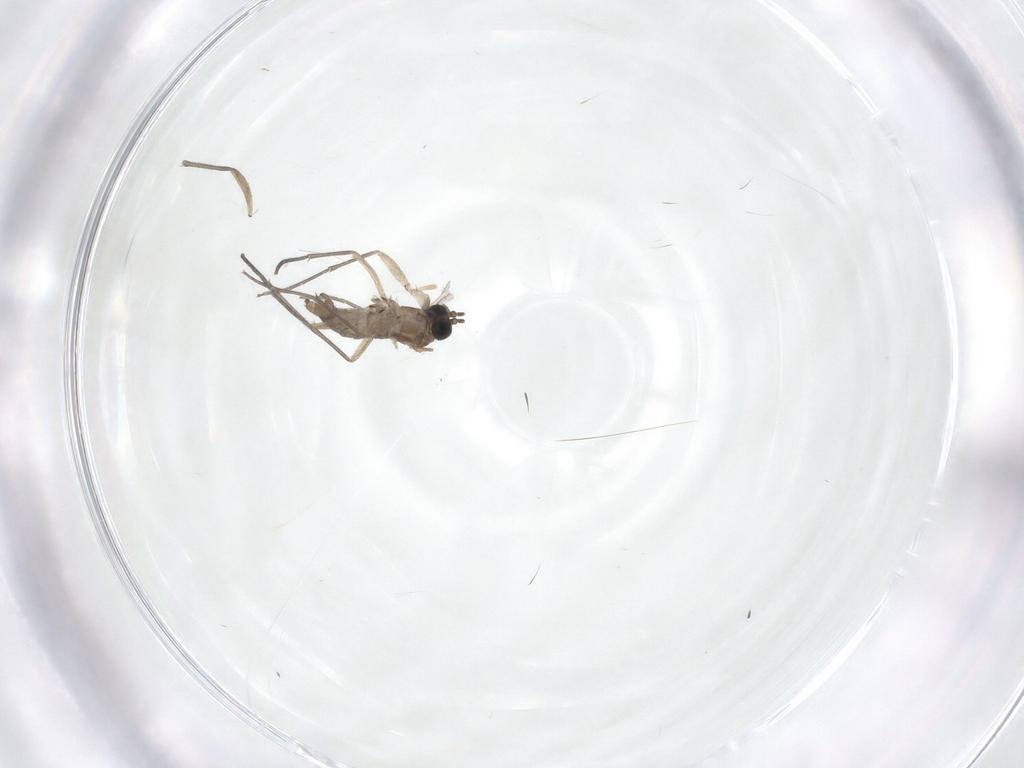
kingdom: Animalia
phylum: Arthropoda
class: Insecta
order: Diptera
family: Sciaridae
